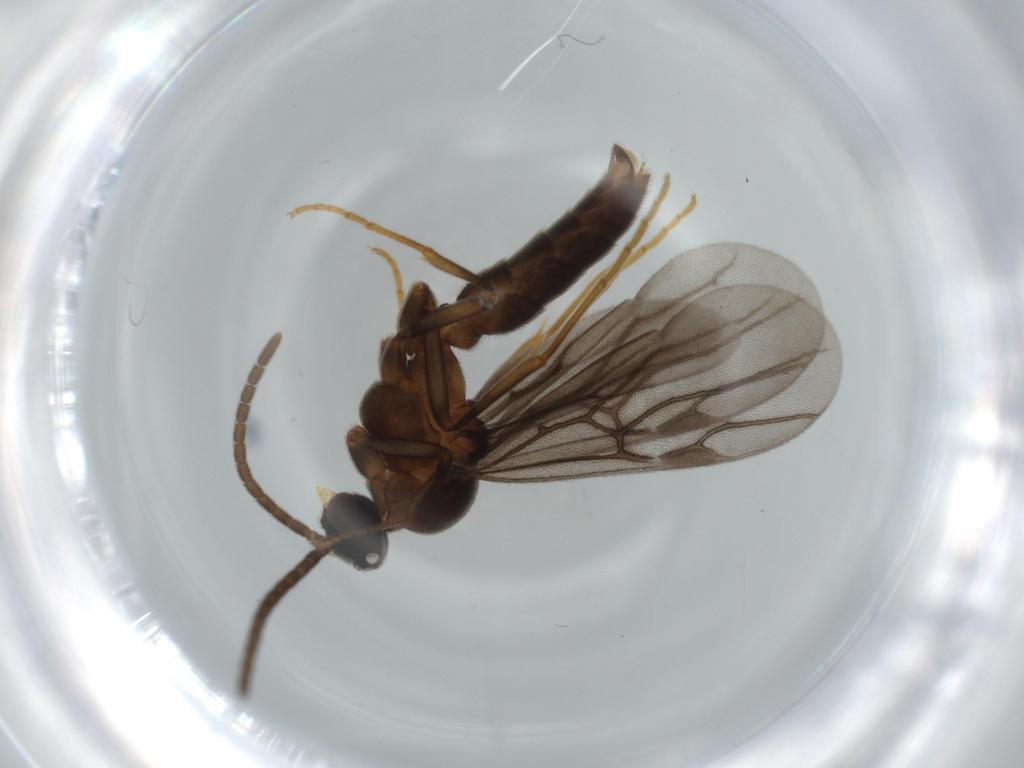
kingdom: Animalia
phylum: Arthropoda
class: Insecta
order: Hymenoptera
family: Formicidae
